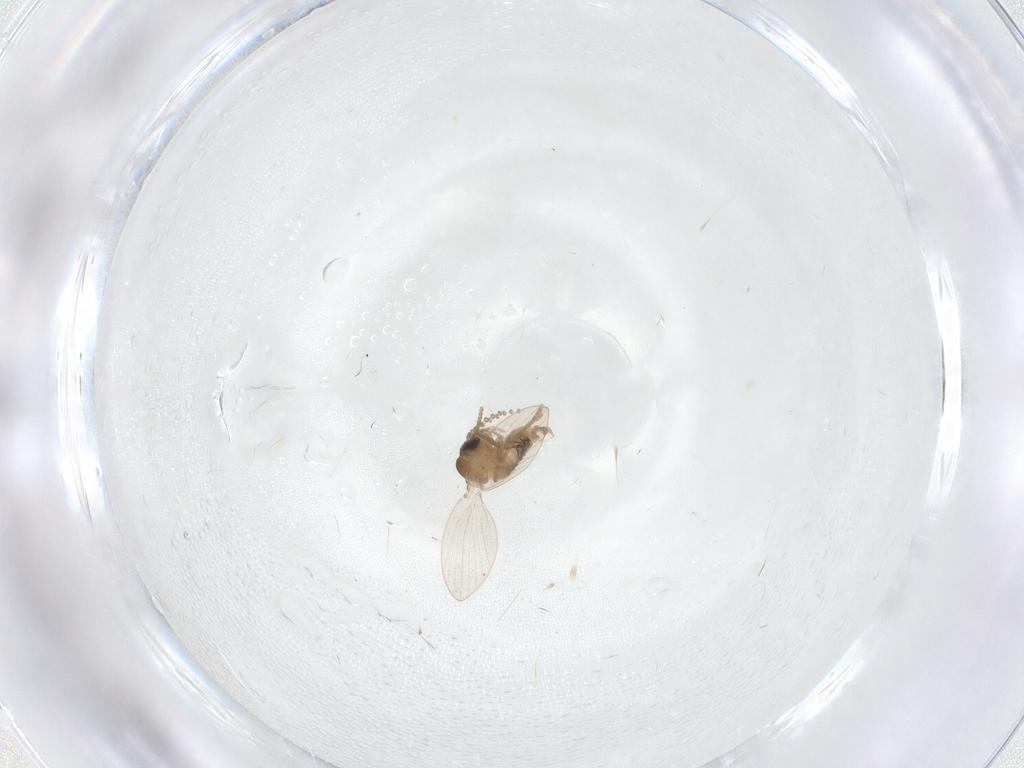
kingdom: Animalia
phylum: Arthropoda
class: Insecta
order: Diptera
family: Psychodidae
